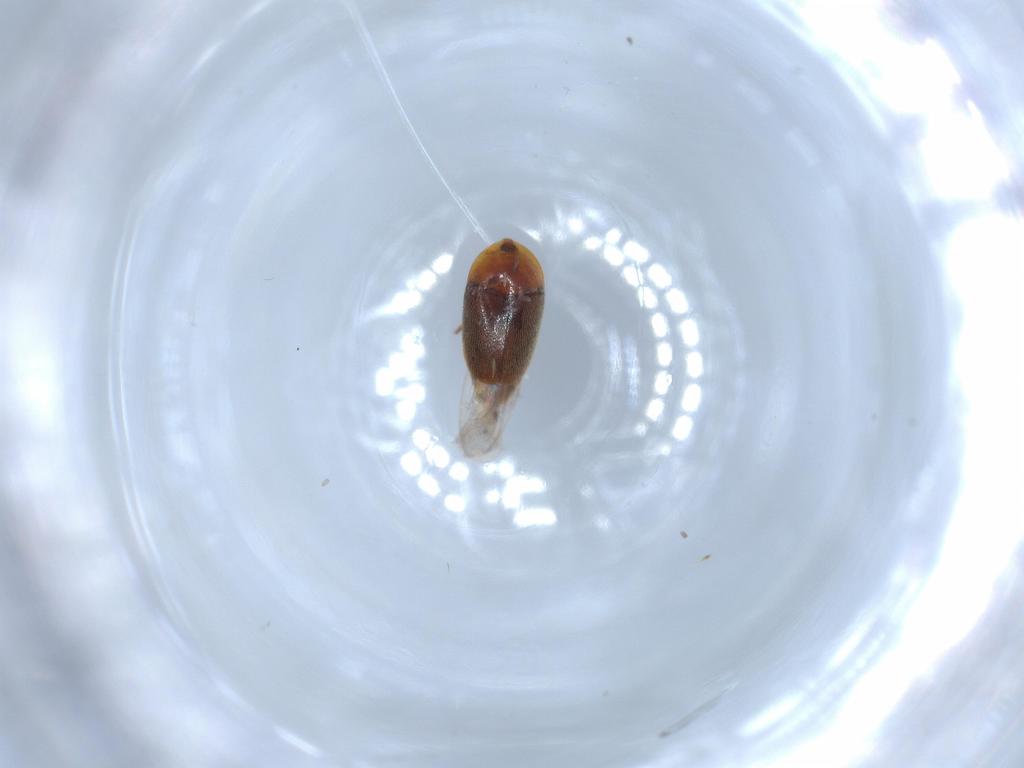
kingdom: Animalia
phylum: Arthropoda
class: Insecta
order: Coleoptera
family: Corylophidae
